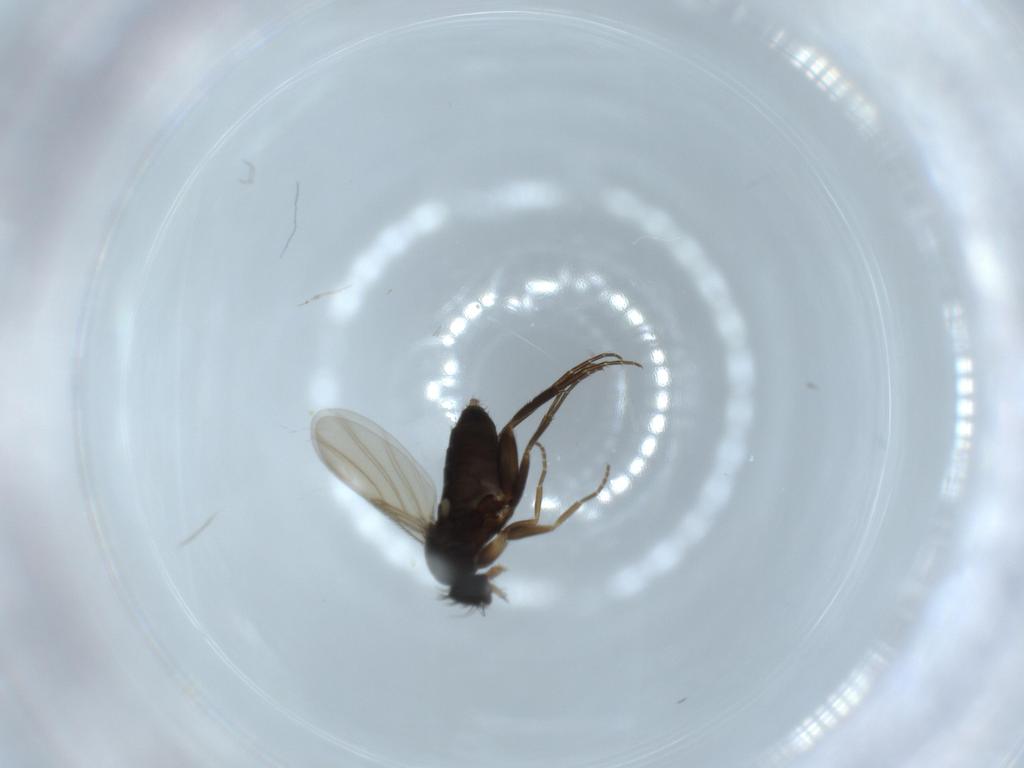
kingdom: Animalia
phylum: Arthropoda
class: Insecta
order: Diptera
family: Phoridae
